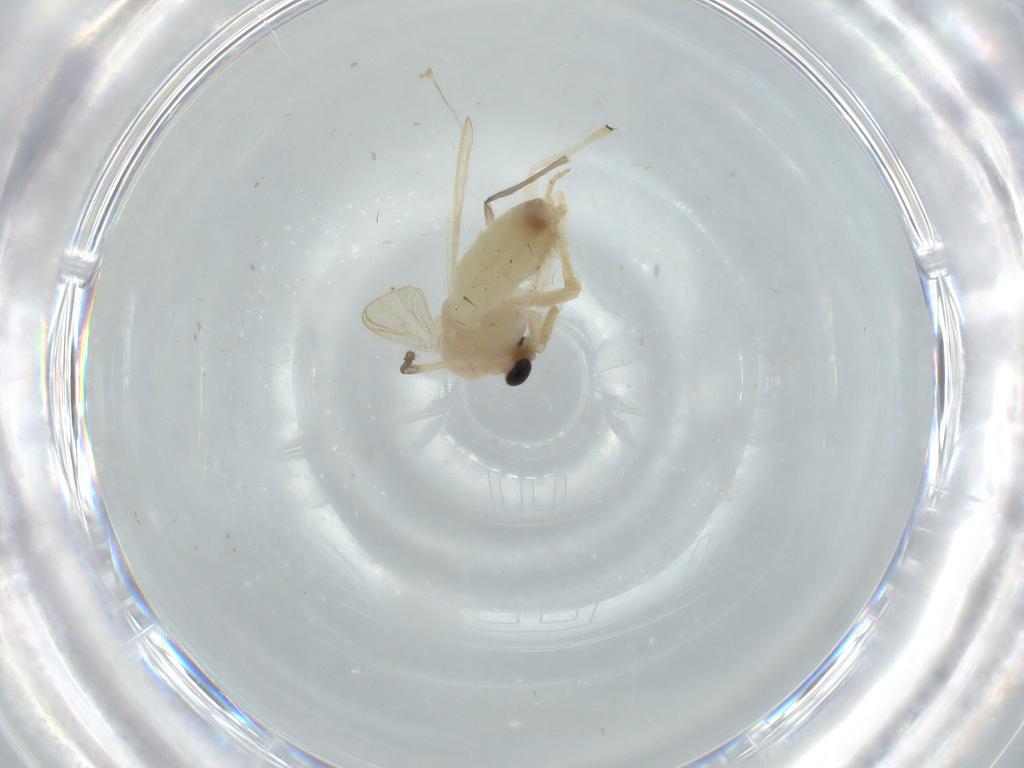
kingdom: Animalia
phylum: Arthropoda
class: Insecta
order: Diptera
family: Chironomidae
